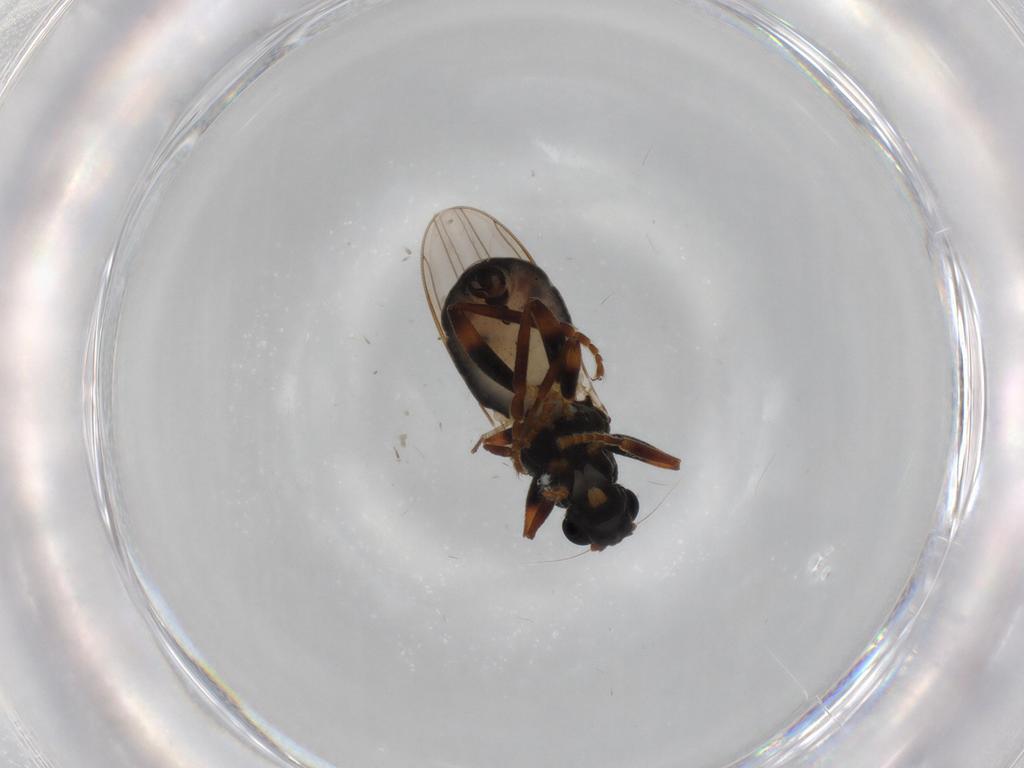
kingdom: Animalia
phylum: Arthropoda
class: Insecta
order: Diptera
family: Sphaeroceridae
